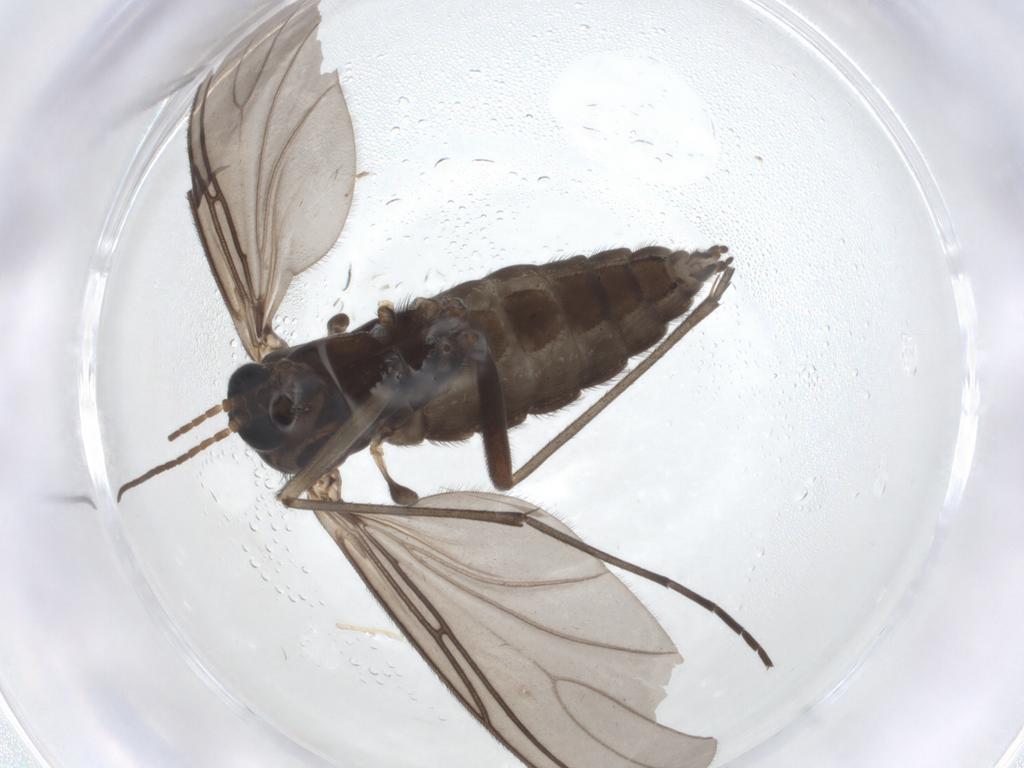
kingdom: Animalia
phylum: Arthropoda
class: Insecta
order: Diptera
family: Sciaridae
